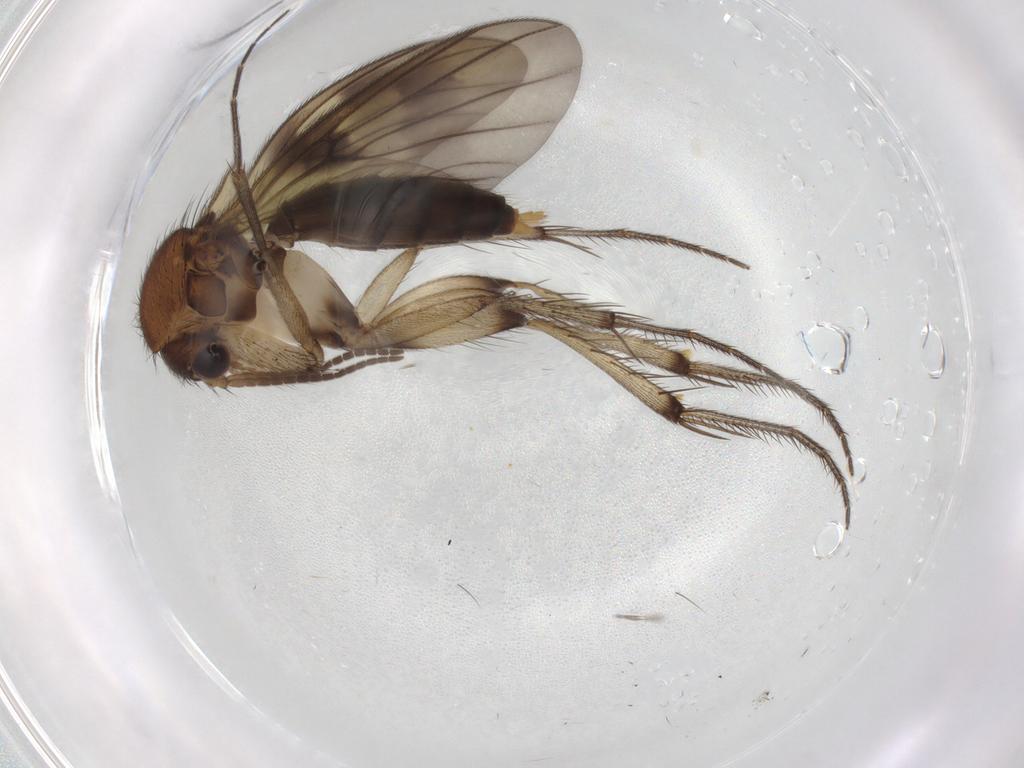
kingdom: Animalia
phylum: Arthropoda
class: Insecta
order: Diptera
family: Mycetophilidae
